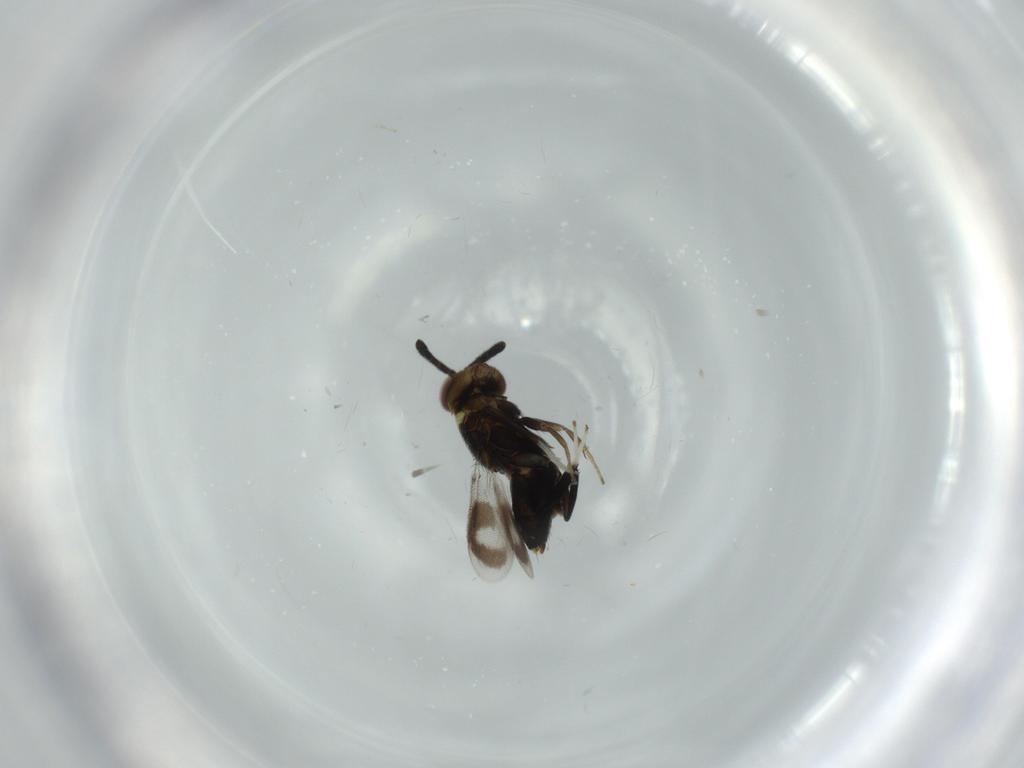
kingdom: Animalia
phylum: Arthropoda
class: Insecta
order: Hymenoptera
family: Aphelinidae
